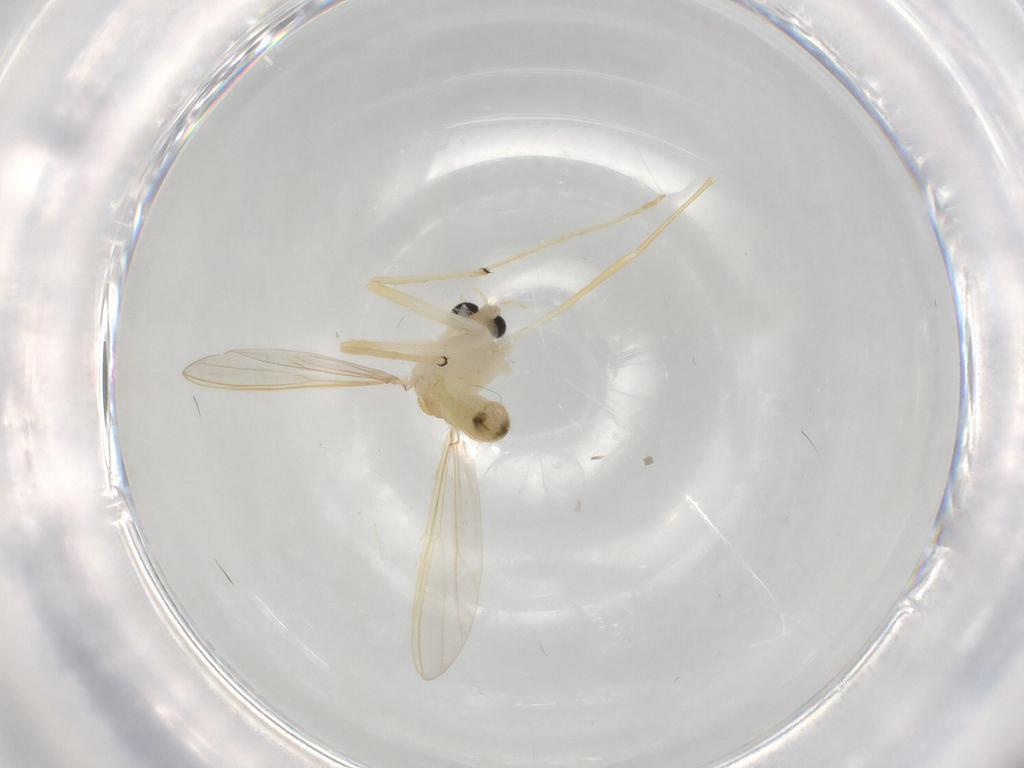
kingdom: Animalia
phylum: Arthropoda
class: Insecta
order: Diptera
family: Chironomidae
